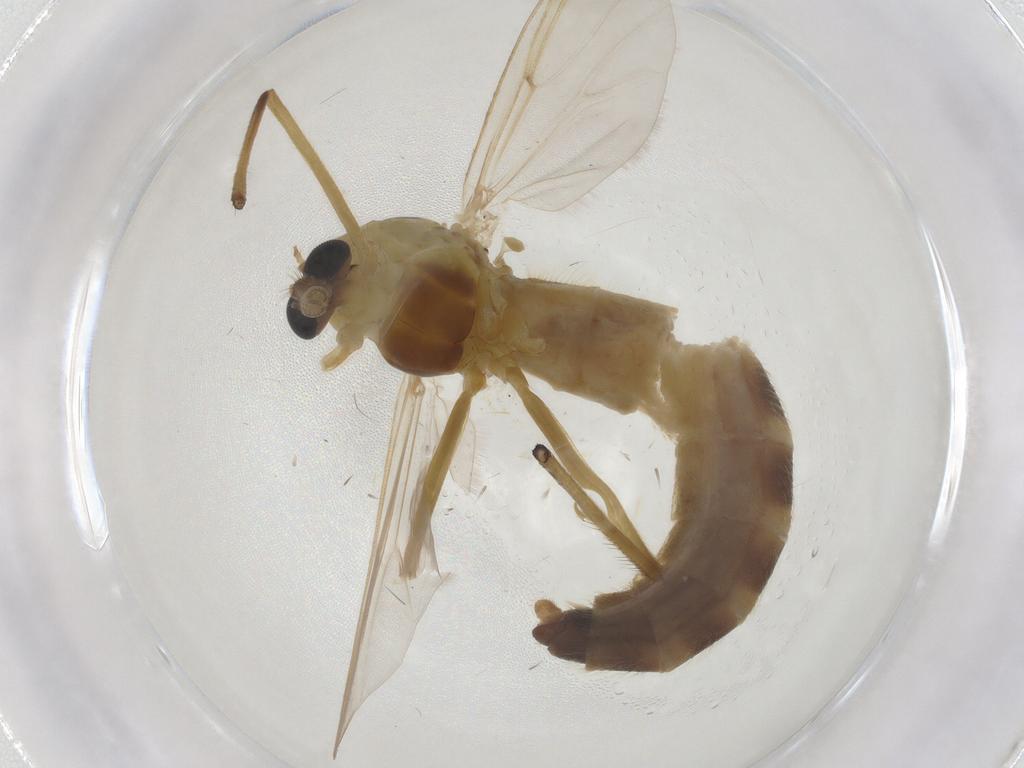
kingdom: Animalia
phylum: Arthropoda
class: Insecta
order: Diptera
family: Chironomidae
